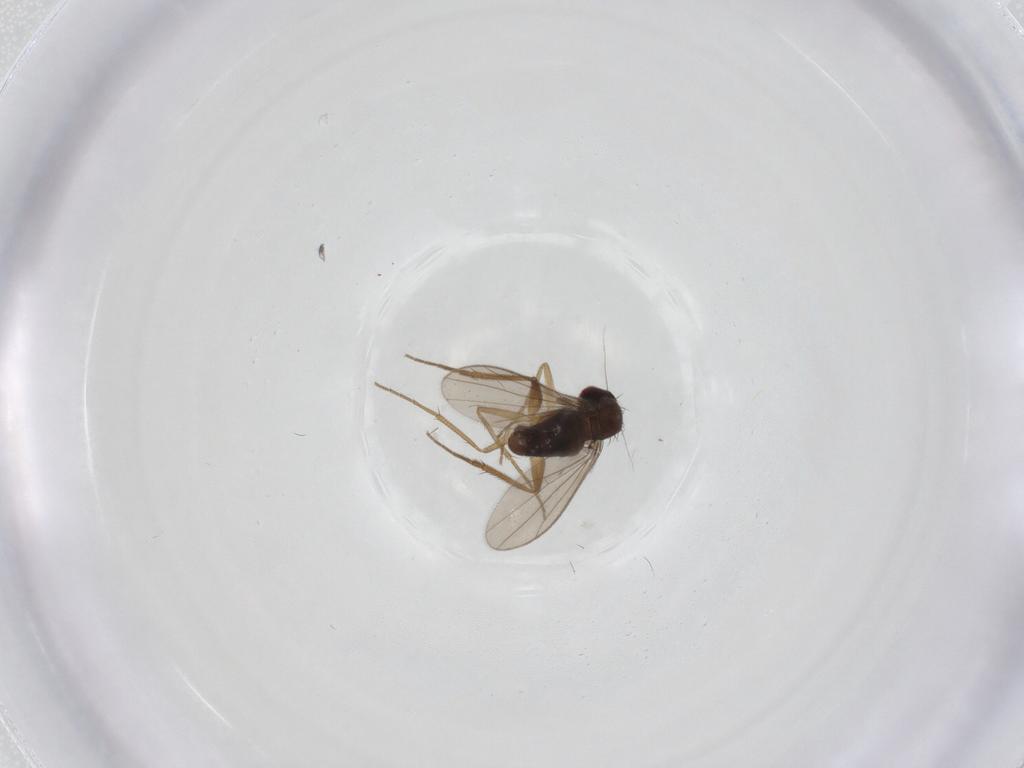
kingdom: Animalia
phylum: Arthropoda
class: Insecta
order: Diptera
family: Dolichopodidae
